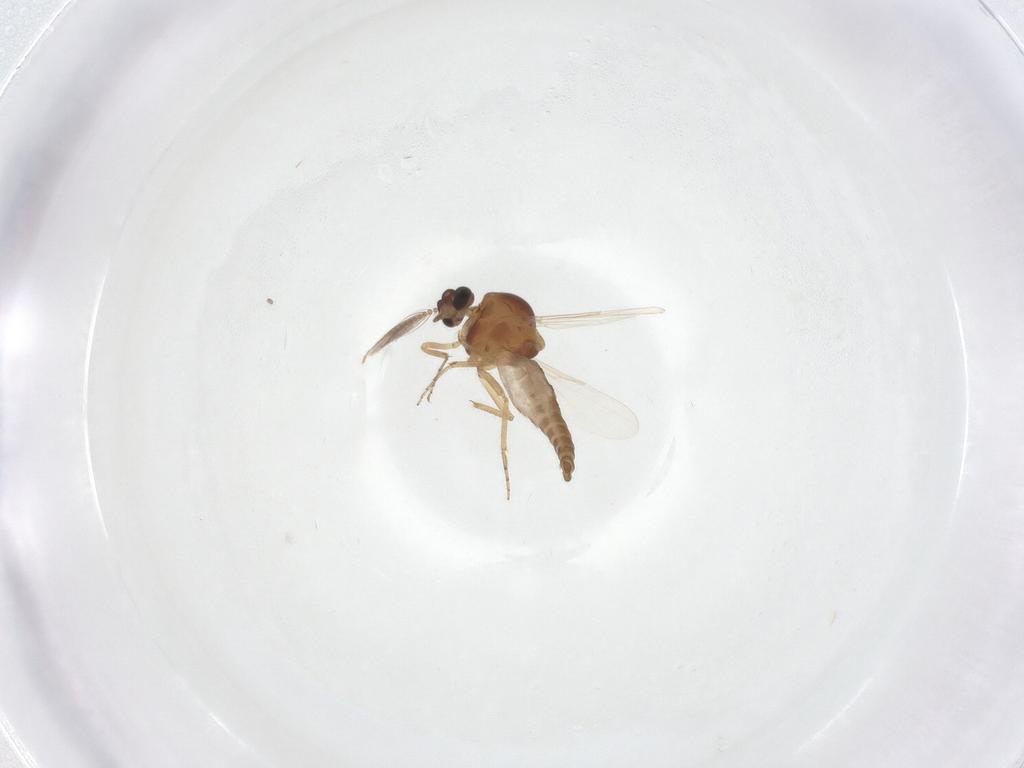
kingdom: Animalia
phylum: Arthropoda
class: Insecta
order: Diptera
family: Ceratopogonidae
